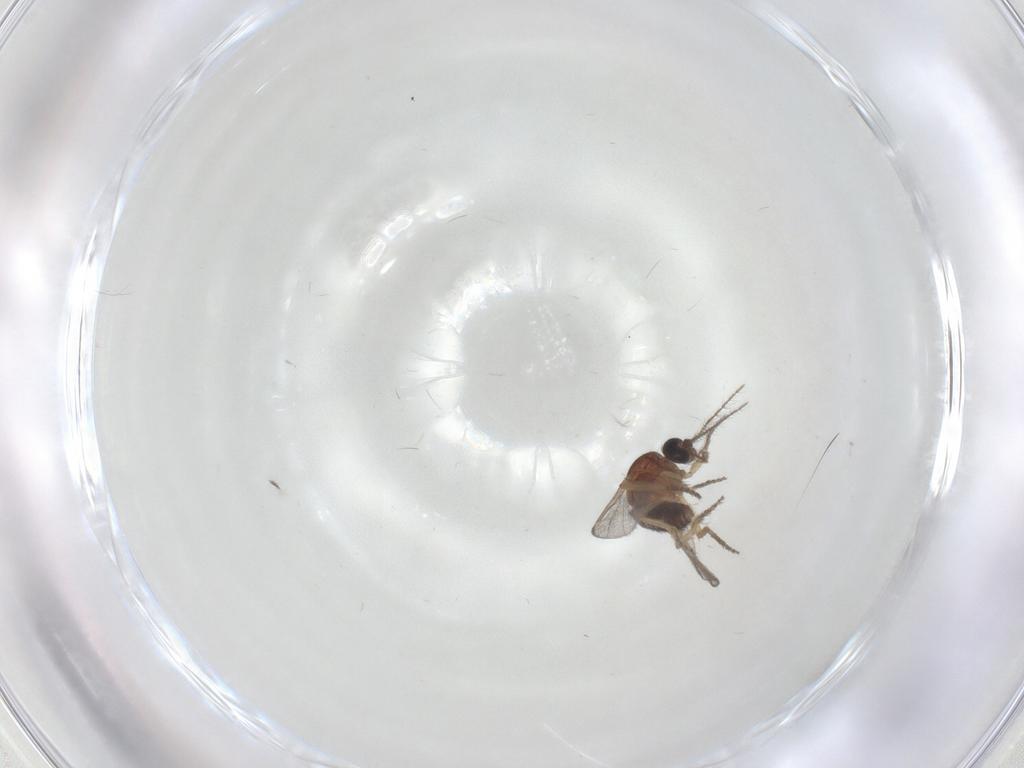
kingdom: Animalia
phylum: Arthropoda
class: Insecta
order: Diptera
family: Ceratopogonidae
